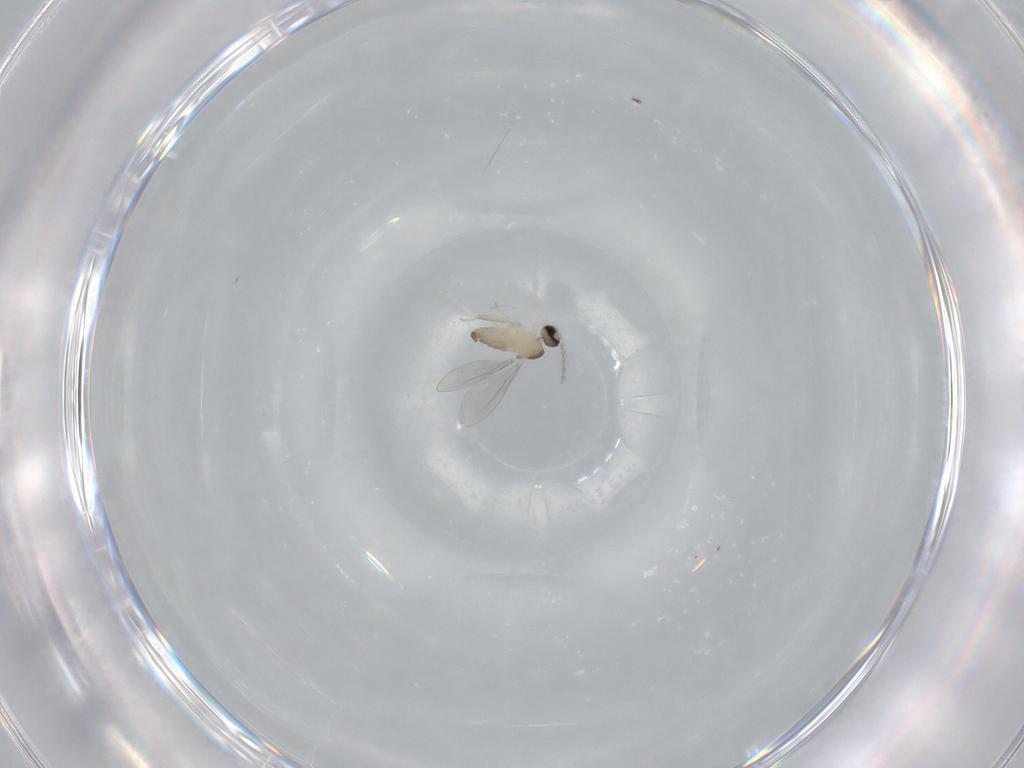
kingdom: Animalia
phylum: Arthropoda
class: Insecta
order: Diptera
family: Cecidomyiidae
